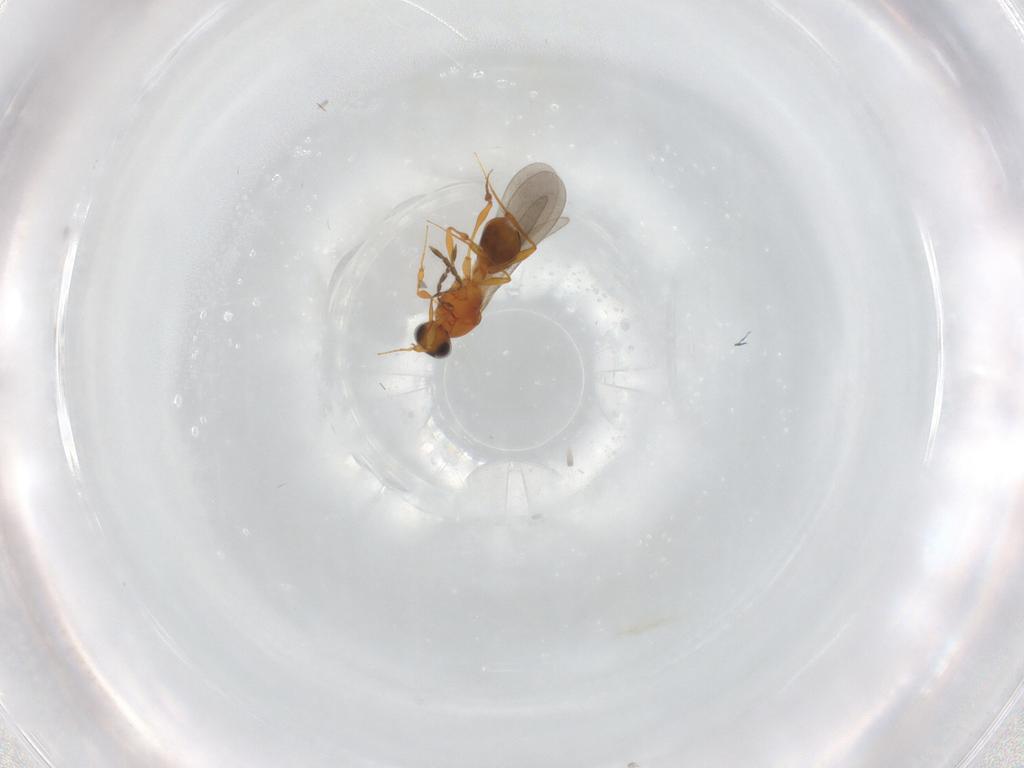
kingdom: Animalia
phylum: Arthropoda
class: Insecta
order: Hymenoptera
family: Platygastridae
